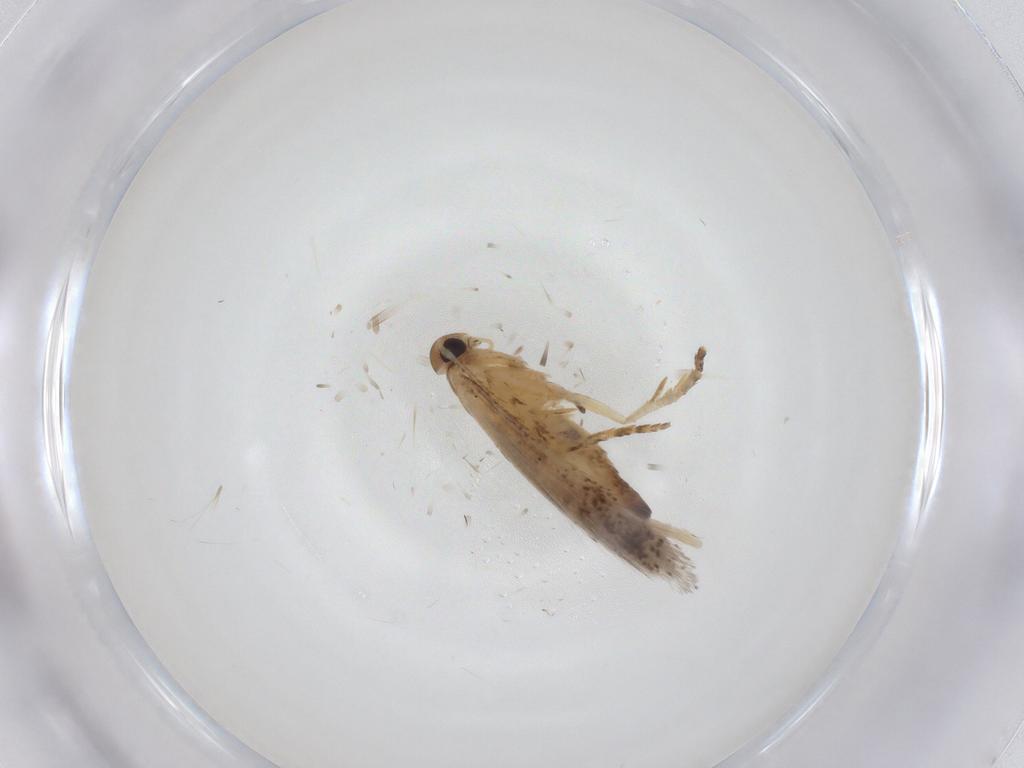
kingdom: Animalia
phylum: Arthropoda
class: Insecta
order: Lepidoptera
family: Gelechiidae
